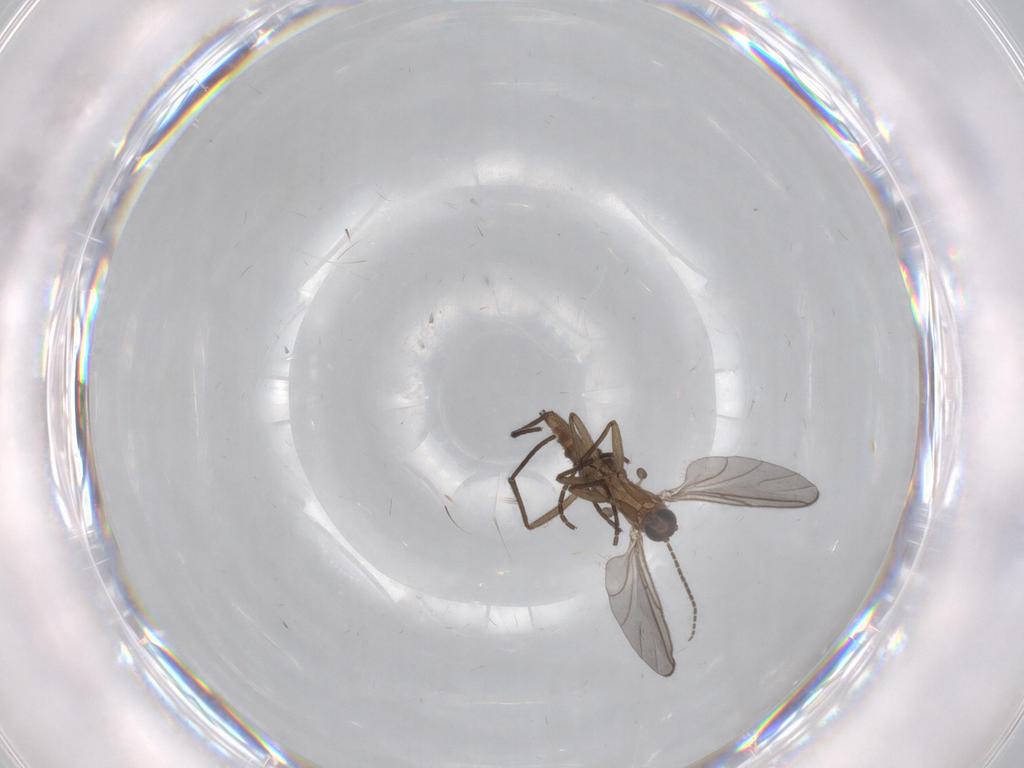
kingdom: Animalia
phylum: Arthropoda
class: Insecta
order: Diptera
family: Sciaridae
